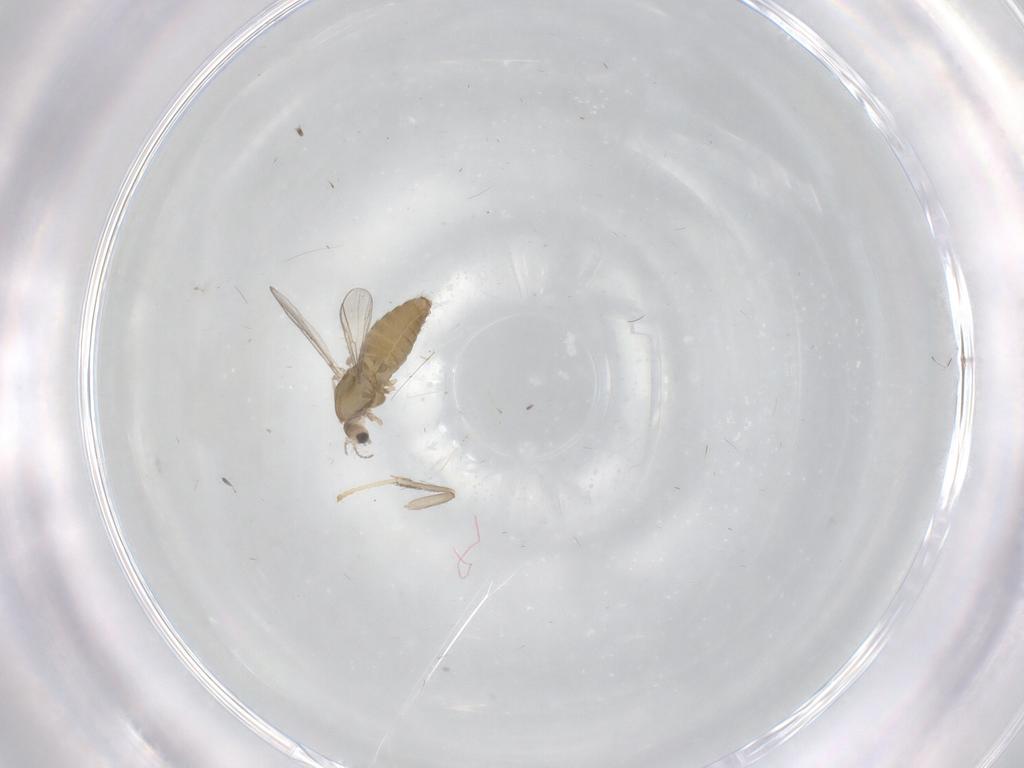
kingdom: Animalia
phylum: Arthropoda
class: Insecta
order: Diptera
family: Chironomidae
